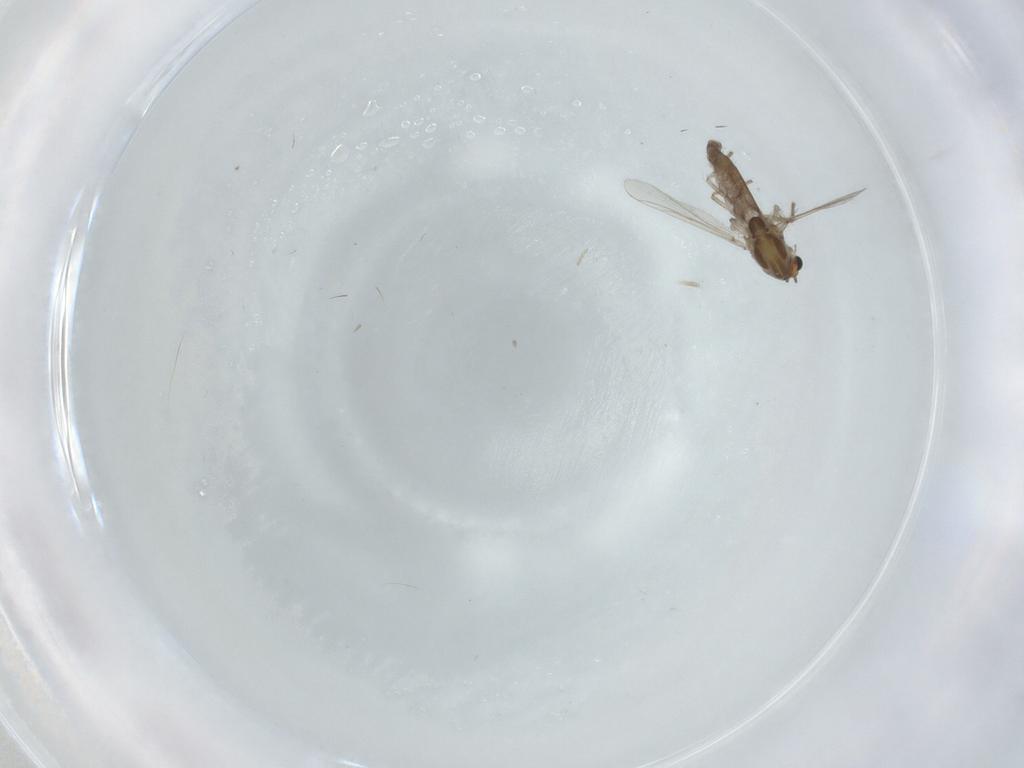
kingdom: Animalia
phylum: Arthropoda
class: Insecta
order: Diptera
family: Chironomidae
